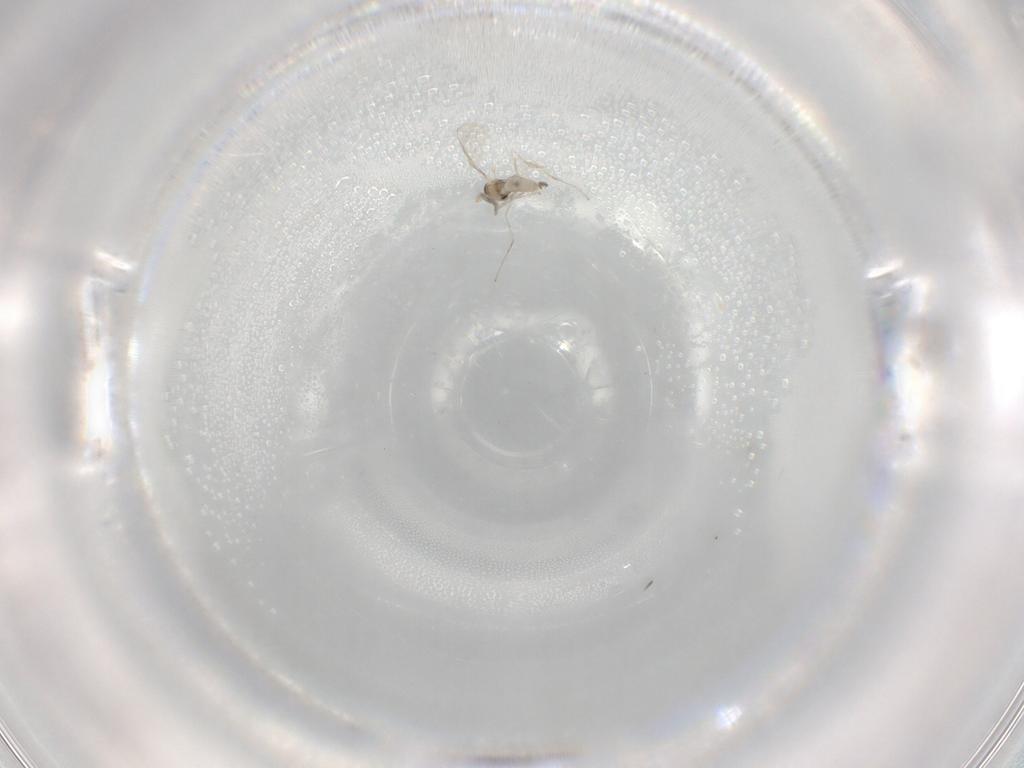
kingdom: Animalia
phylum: Arthropoda
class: Insecta
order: Diptera
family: Cecidomyiidae
